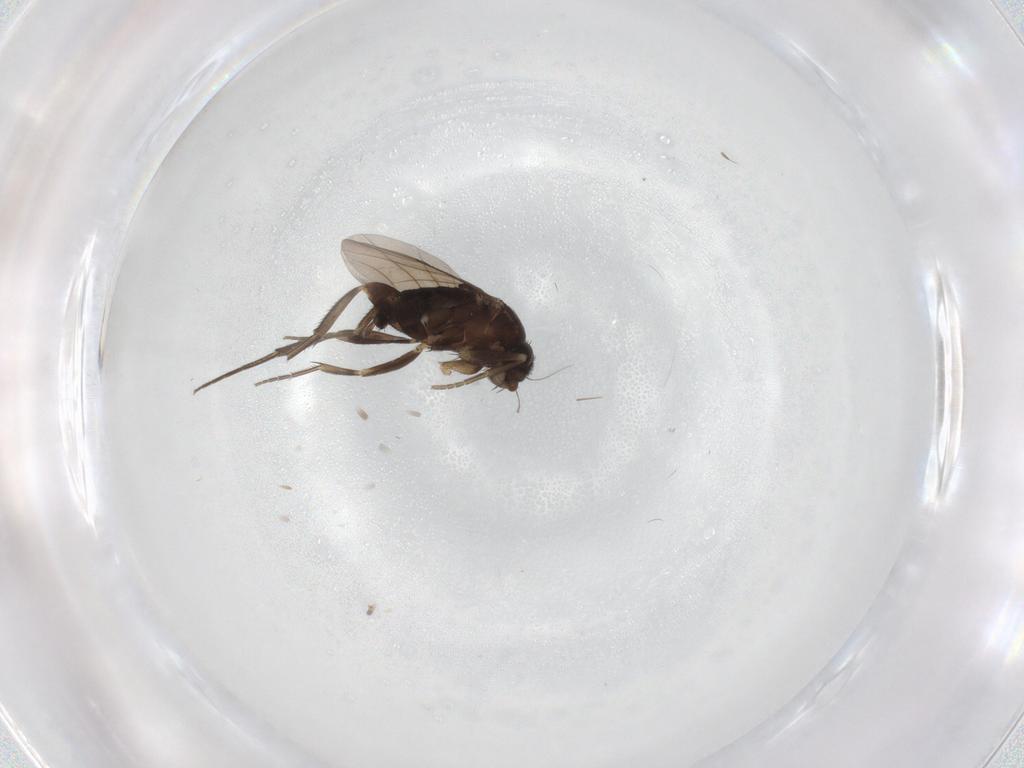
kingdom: Animalia
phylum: Arthropoda
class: Insecta
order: Diptera
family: Phoridae
